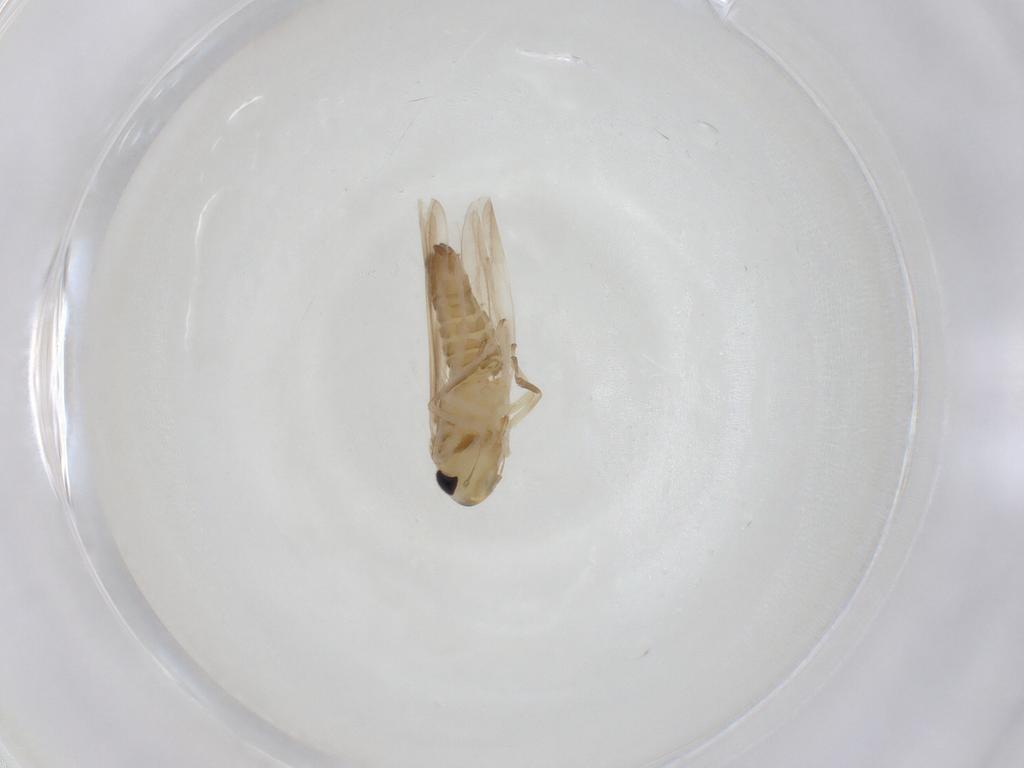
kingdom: Animalia
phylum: Arthropoda
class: Insecta
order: Hemiptera
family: Cicadellidae
